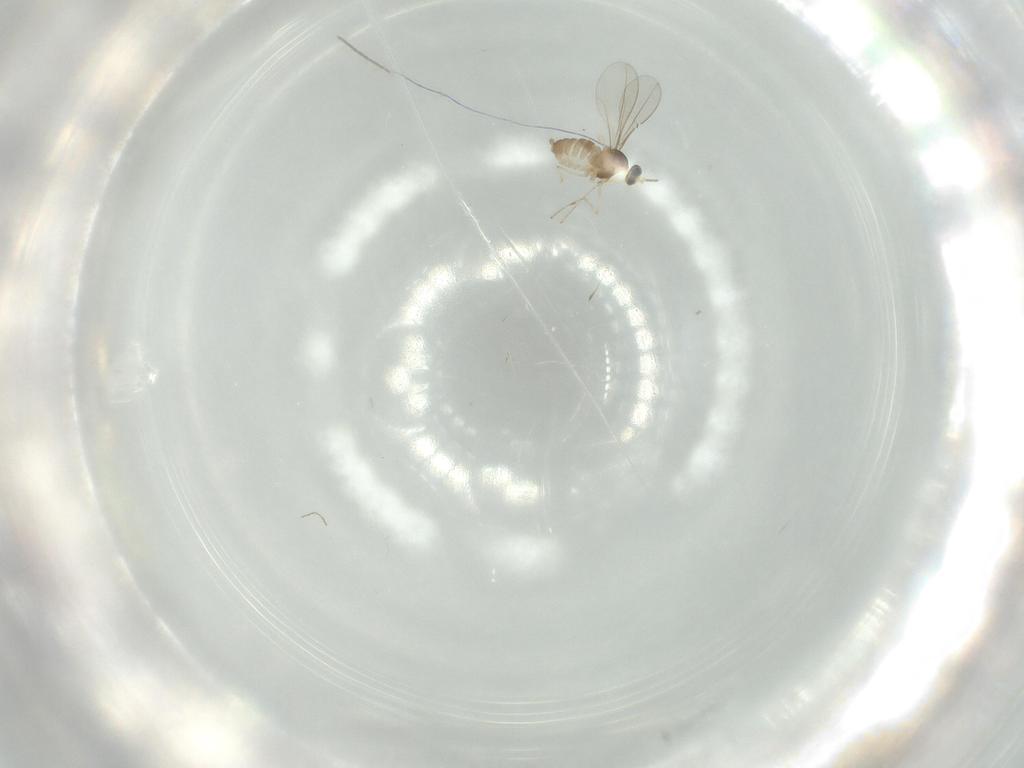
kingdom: Animalia
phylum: Arthropoda
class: Insecta
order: Diptera
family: Chironomidae
